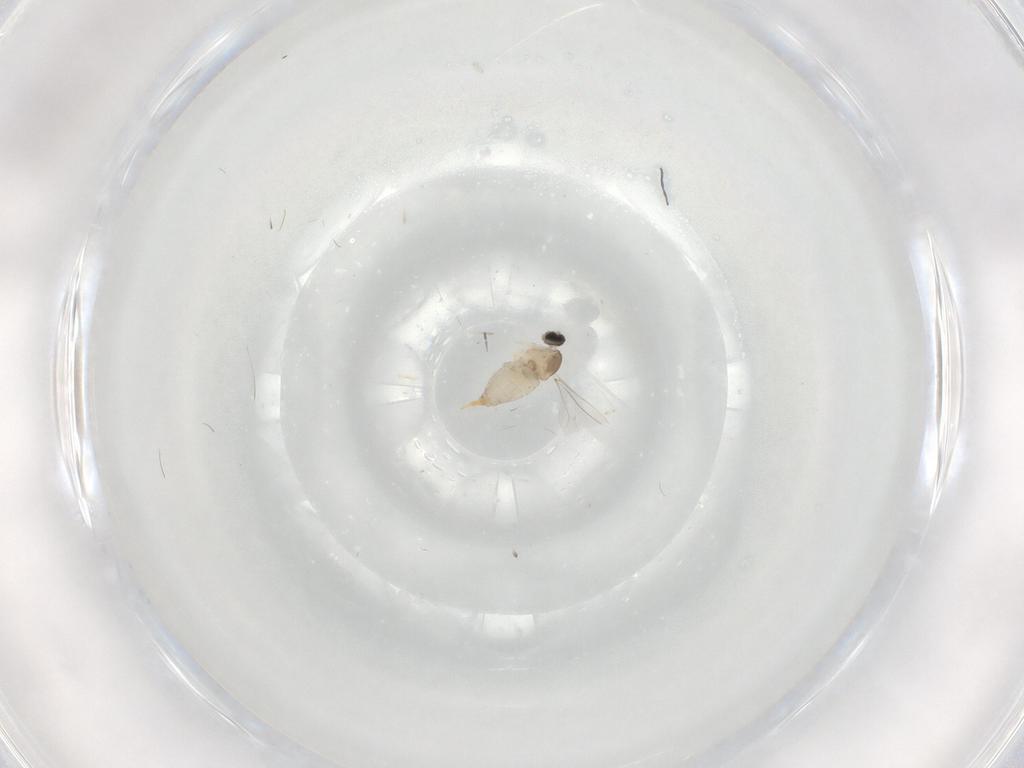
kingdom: Animalia
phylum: Arthropoda
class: Insecta
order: Diptera
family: Cecidomyiidae
